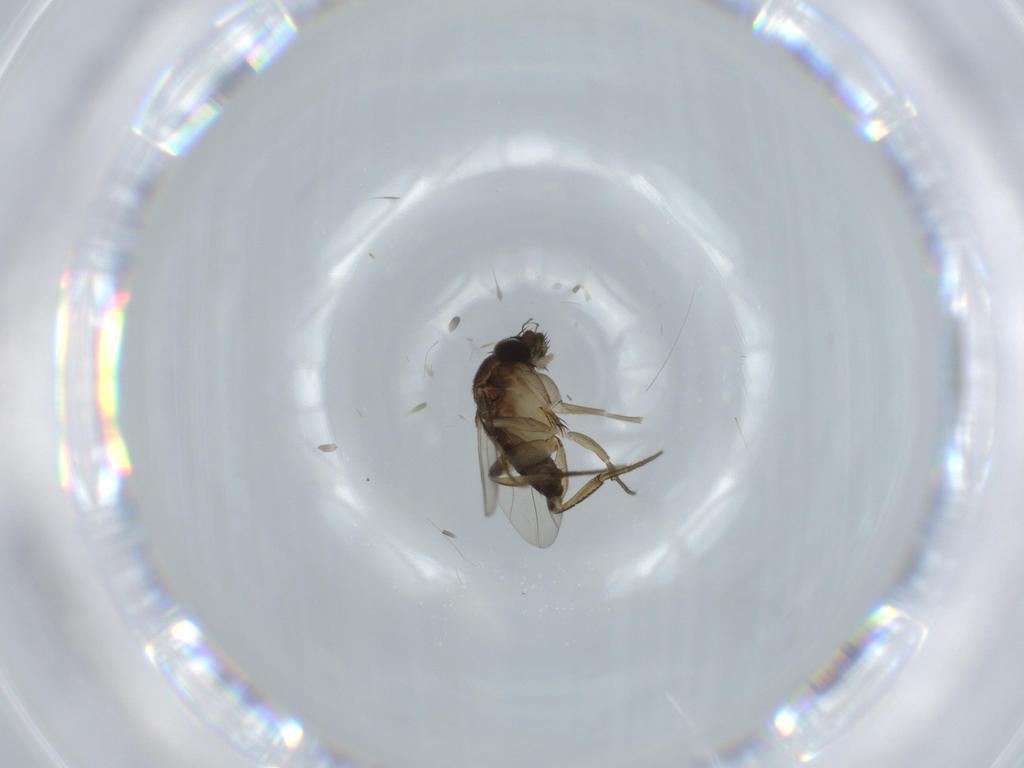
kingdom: Animalia
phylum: Arthropoda
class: Insecta
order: Diptera
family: Phoridae
